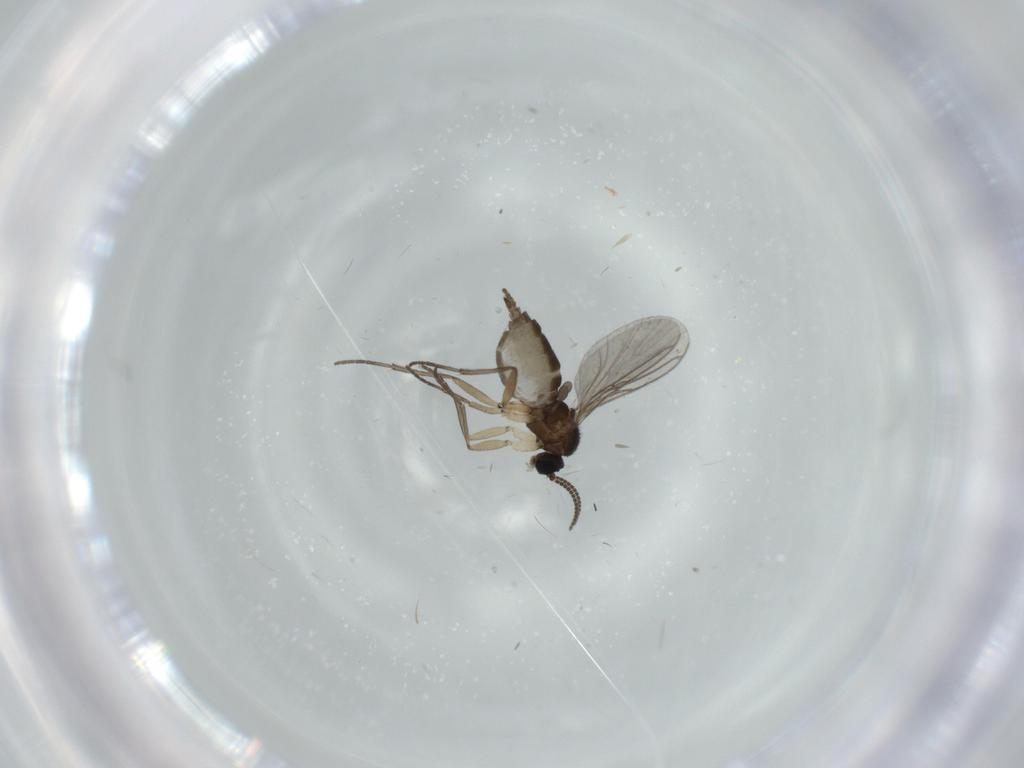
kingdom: Animalia
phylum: Arthropoda
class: Insecta
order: Diptera
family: Sciaridae
